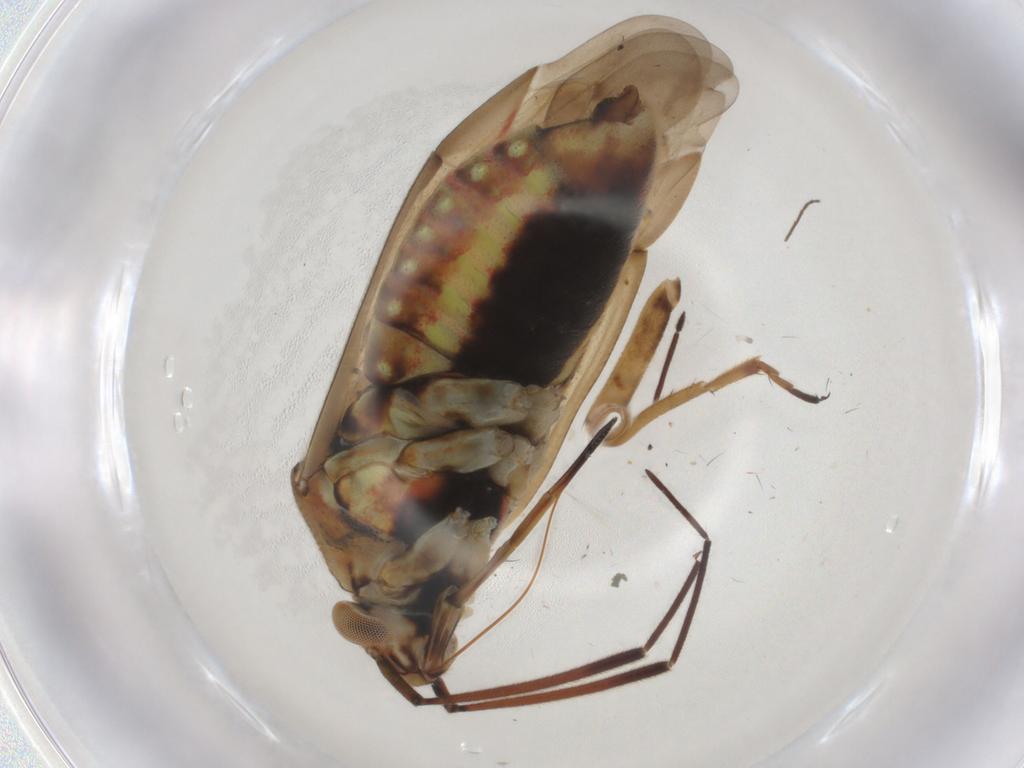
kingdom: Animalia
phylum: Arthropoda
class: Insecta
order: Hemiptera
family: Miridae
